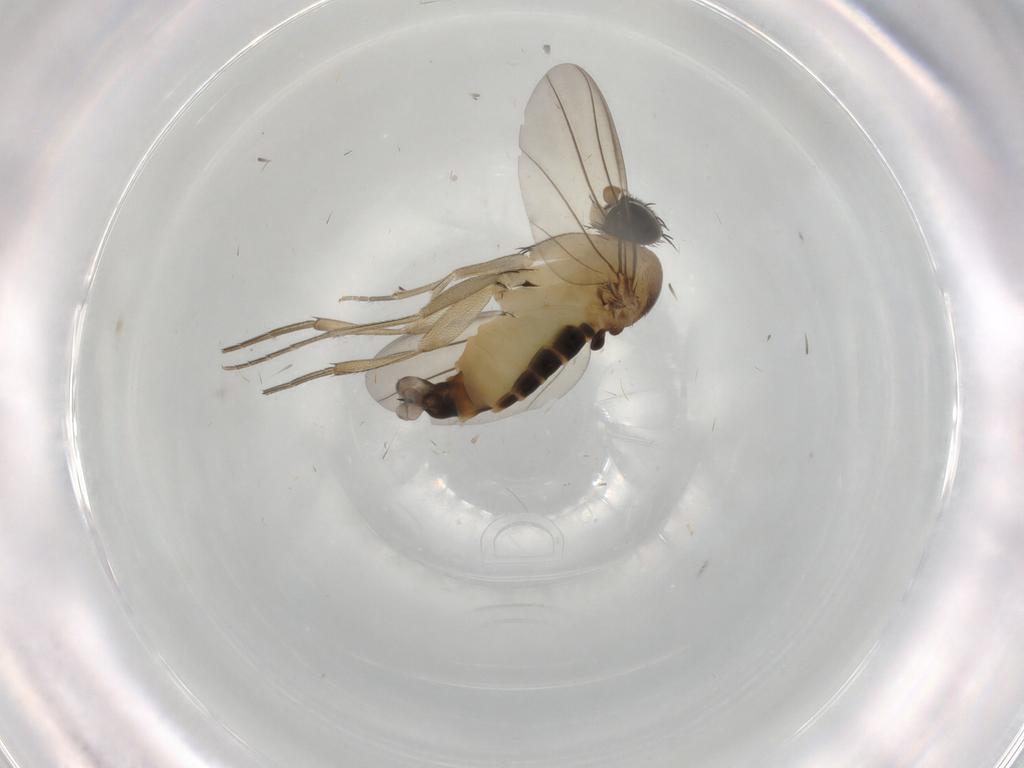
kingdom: Animalia
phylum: Arthropoda
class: Insecta
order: Diptera
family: Phoridae
